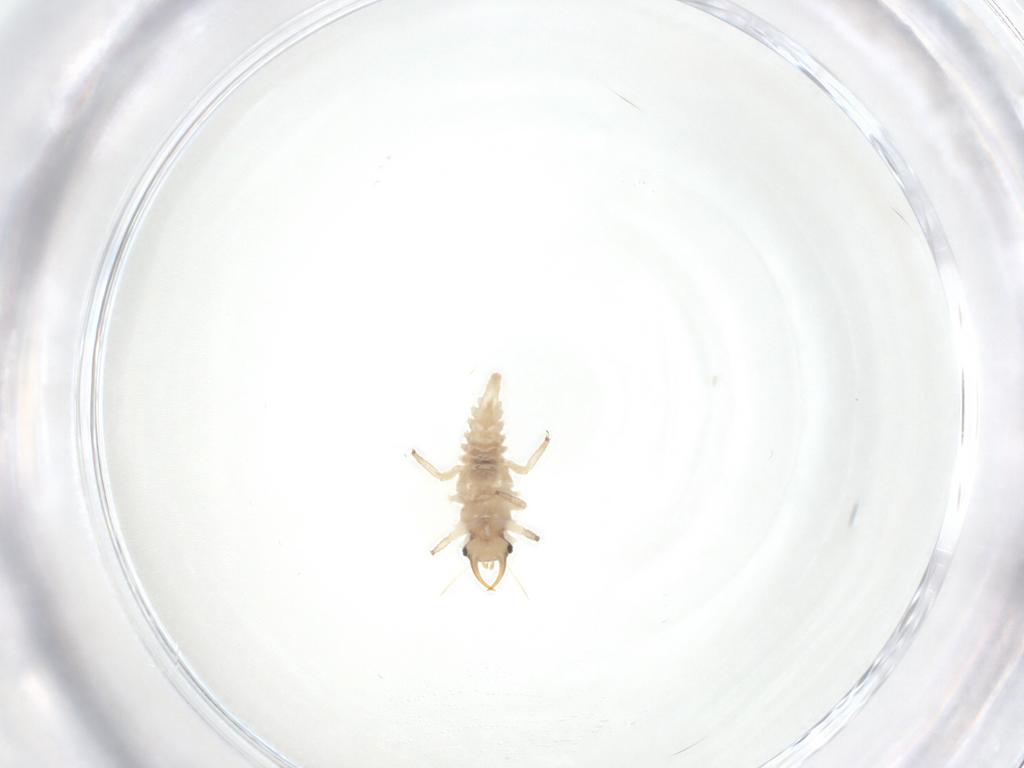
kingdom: Animalia
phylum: Arthropoda
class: Insecta
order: Neuroptera
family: Chrysopidae
